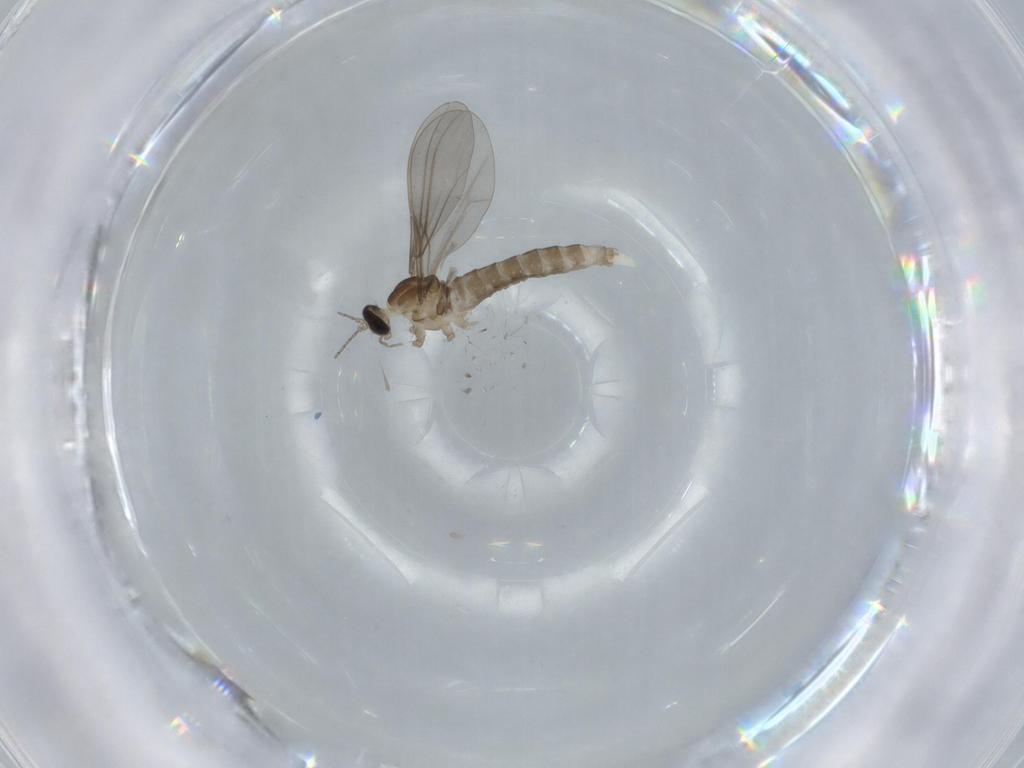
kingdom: Animalia
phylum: Arthropoda
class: Insecta
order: Diptera
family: Cecidomyiidae
